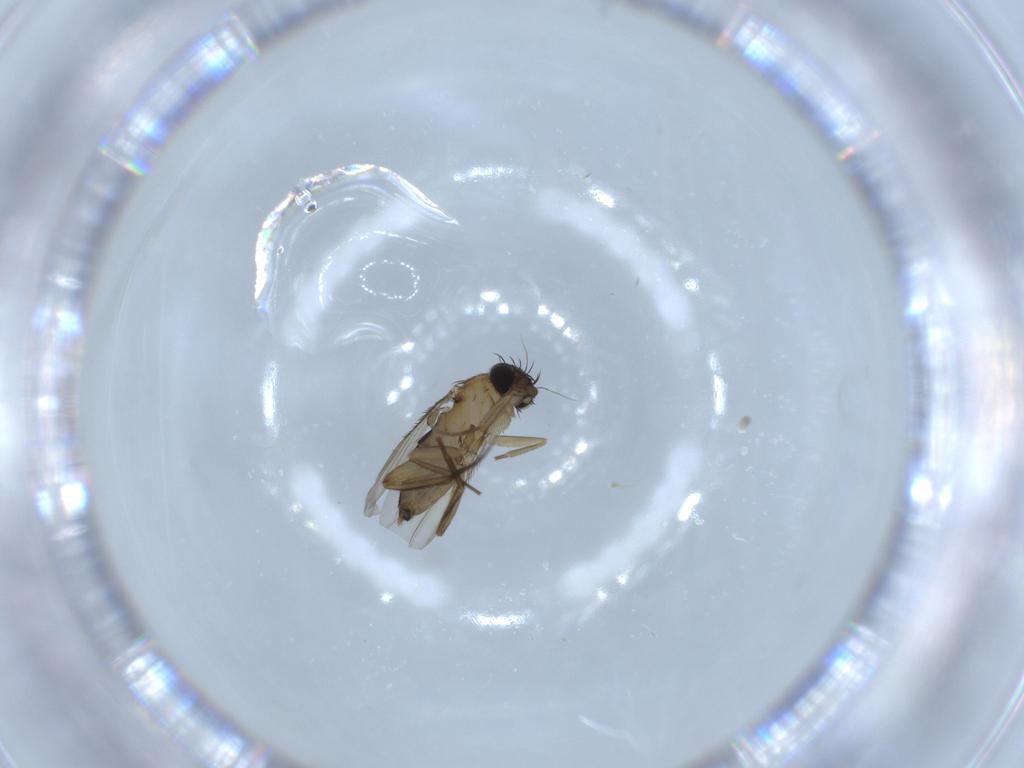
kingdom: Animalia
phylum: Arthropoda
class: Insecta
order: Diptera
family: Phoridae
